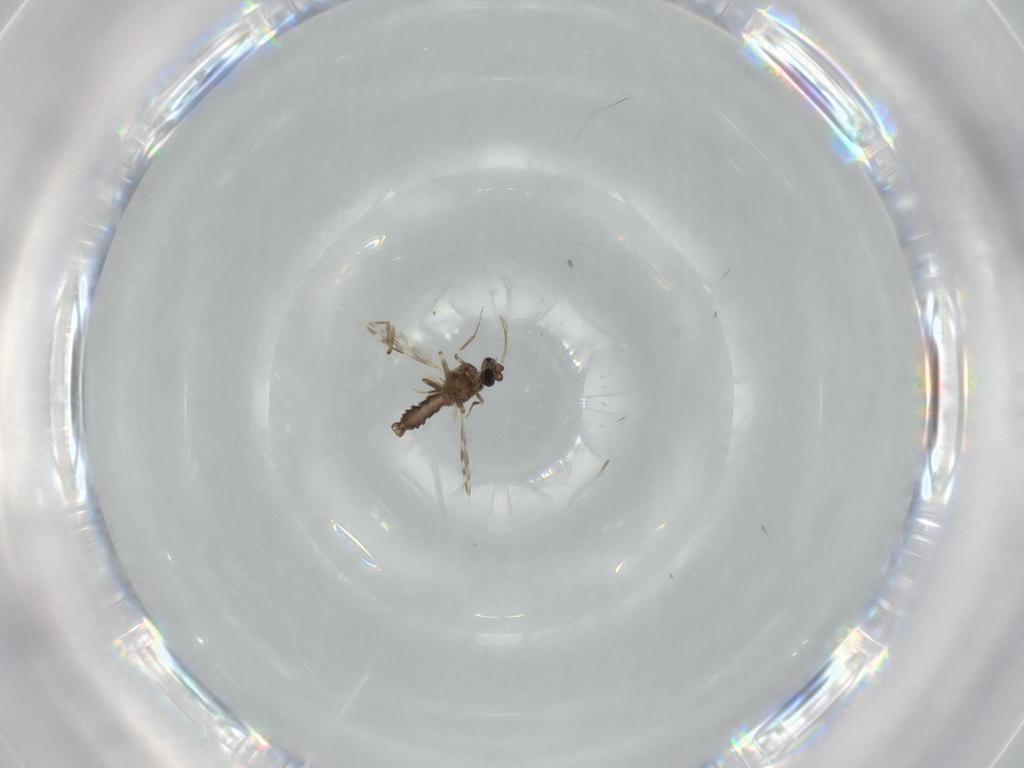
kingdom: Animalia
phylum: Arthropoda
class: Insecta
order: Diptera
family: Ceratopogonidae
